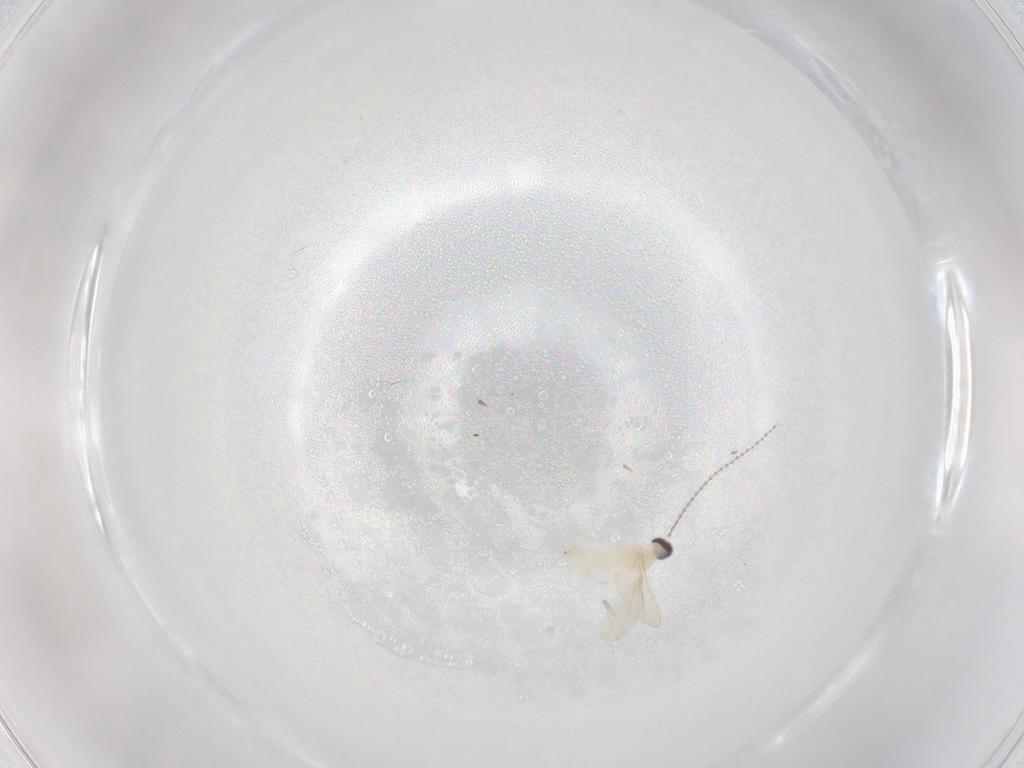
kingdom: Animalia
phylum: Arthropoda
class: Insecta
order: Diptera
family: Cecidomyiidae
